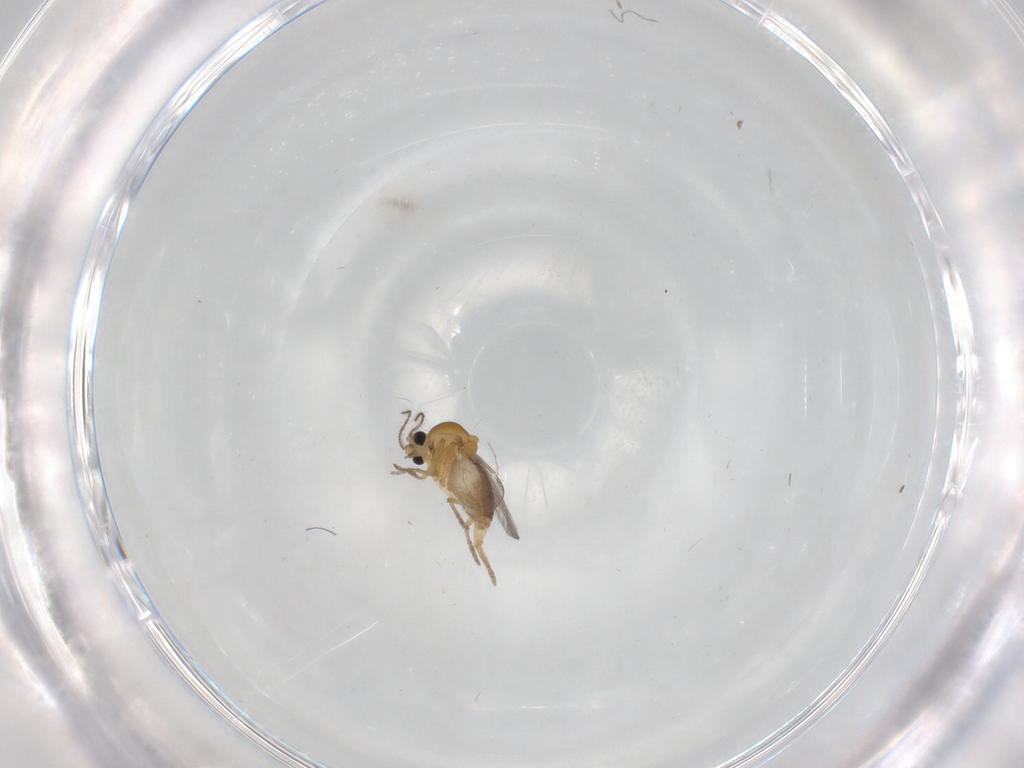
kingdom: Animalia
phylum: Arthropoda
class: Insecta
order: Diptera
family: Ceratopogonidae
